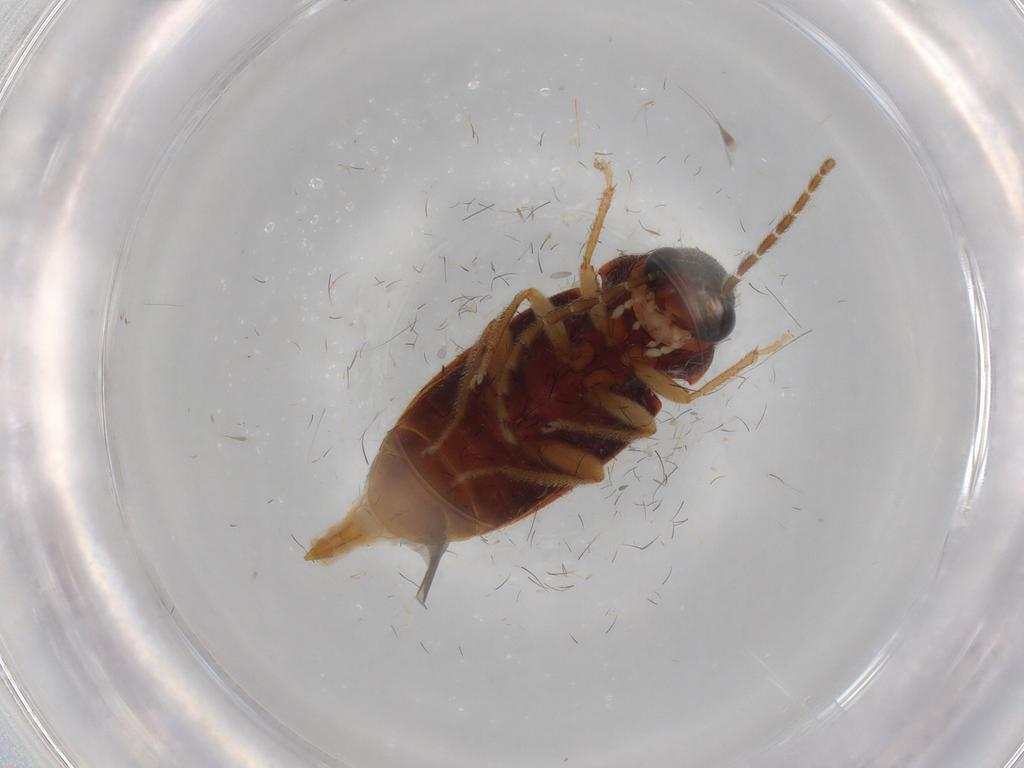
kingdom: Animalia
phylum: Arthropoda
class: Insecta
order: Coleoptera
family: Ptilodactylidae
